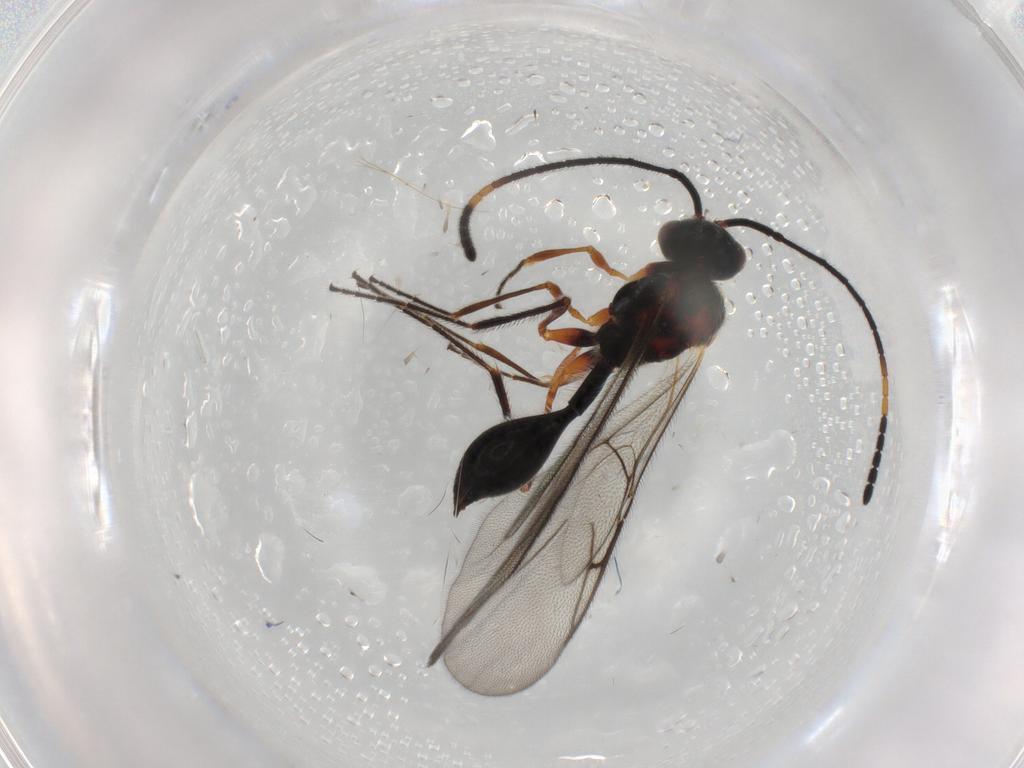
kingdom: Animalia
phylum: Arthropoda
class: Insecta
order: Hymenoptera
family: Diapriidae
